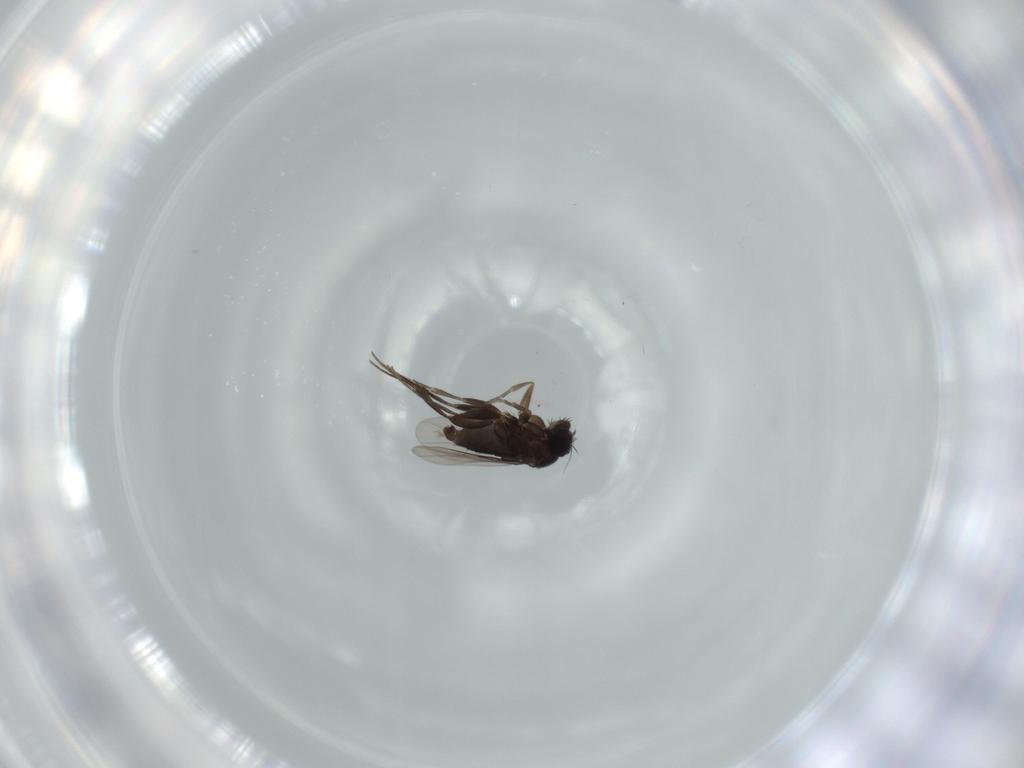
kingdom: Animalia
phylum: Arthropoda
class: Insecta
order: Diptera
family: Phoridae
